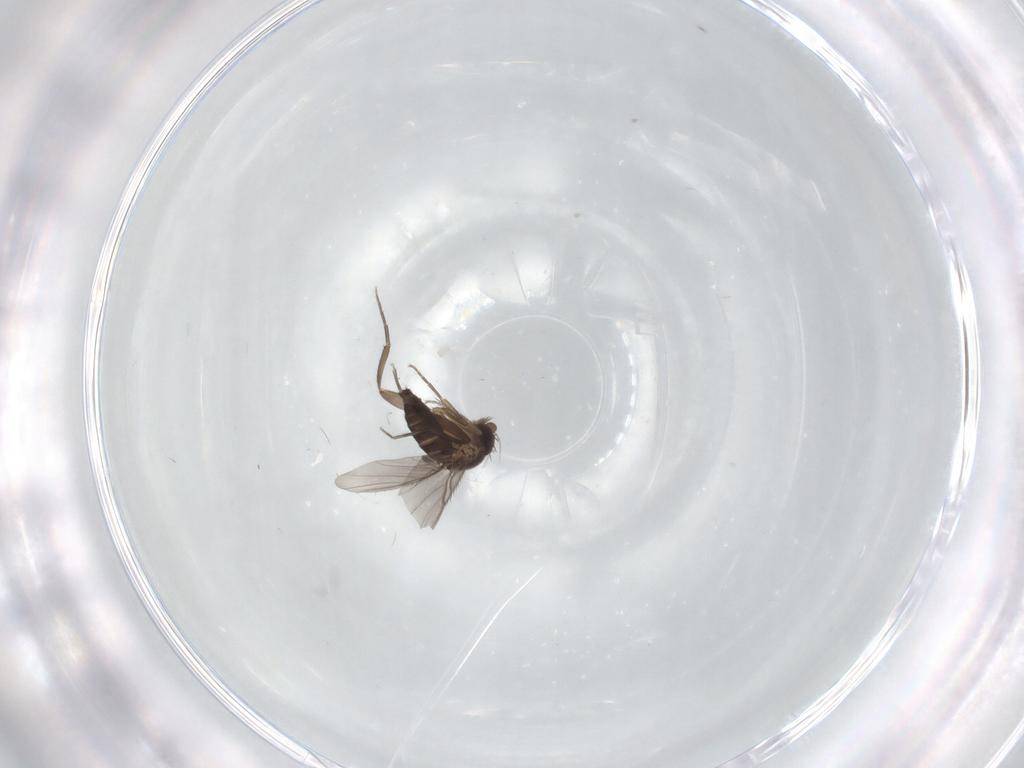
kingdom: Animalia
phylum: Arthropoda
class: Insecta
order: Diptera
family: Phoridae
